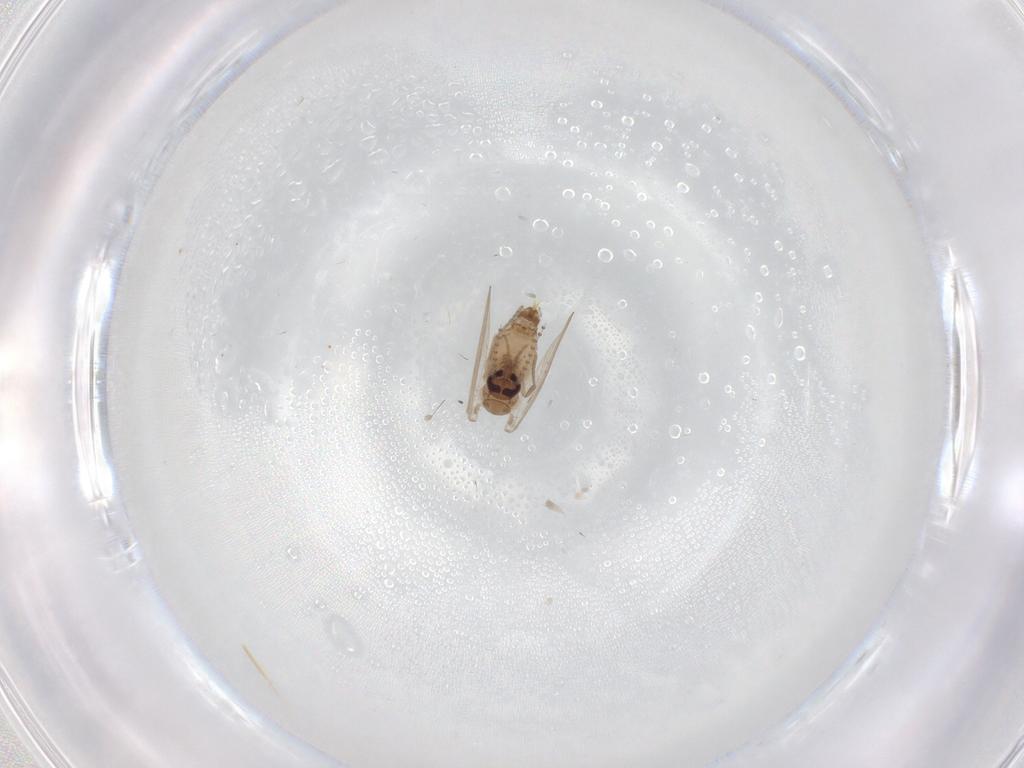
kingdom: Animalia
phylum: Arthropoda
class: Insecta
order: Diptera
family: Psychodidae
